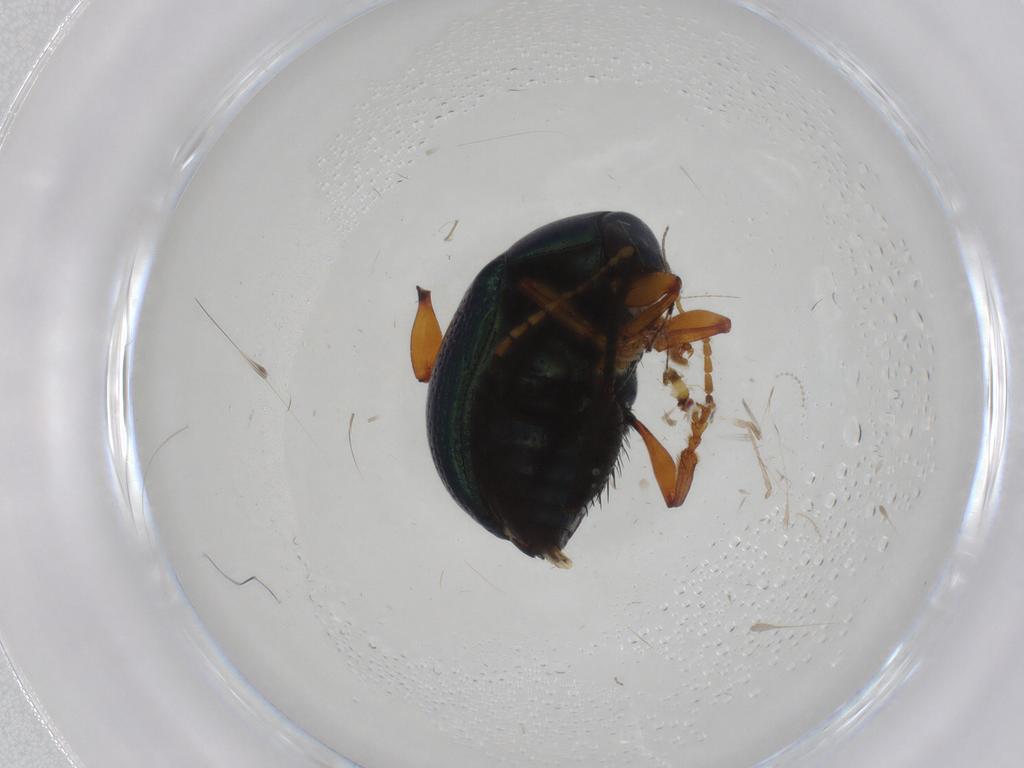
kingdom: Animalia
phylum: Arthropoda
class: Insecta
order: Coleoptera
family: Chrysomelidae
